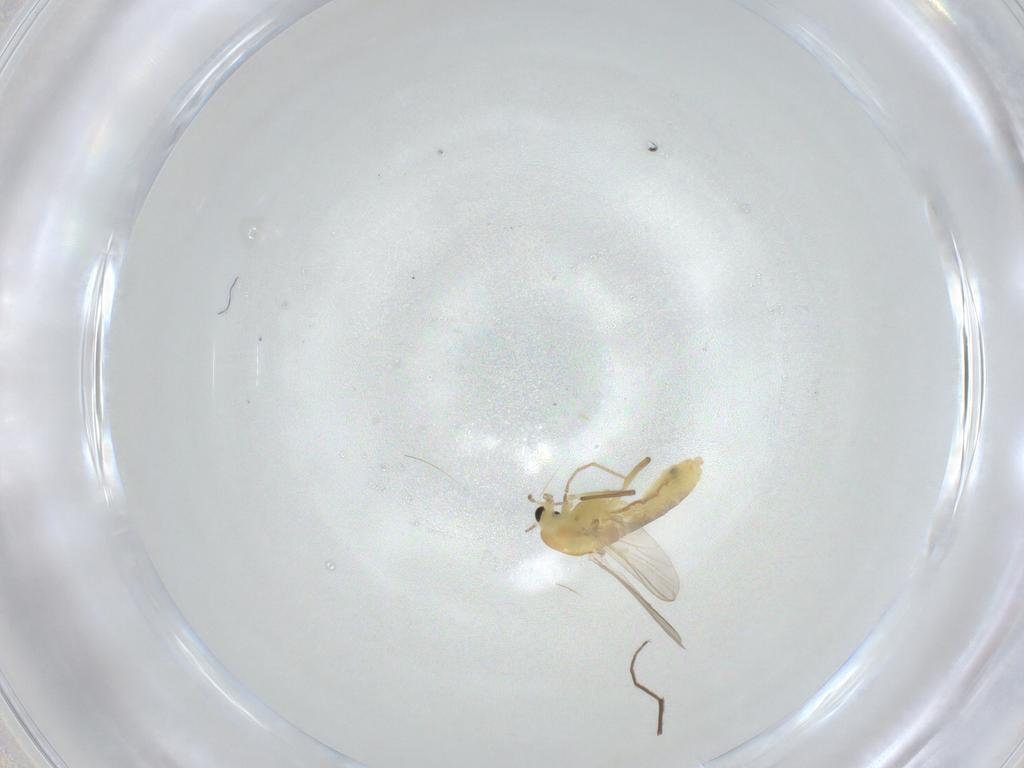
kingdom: Animalia
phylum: Arthropoda
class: Insecta
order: Diptera
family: Chironomidae
